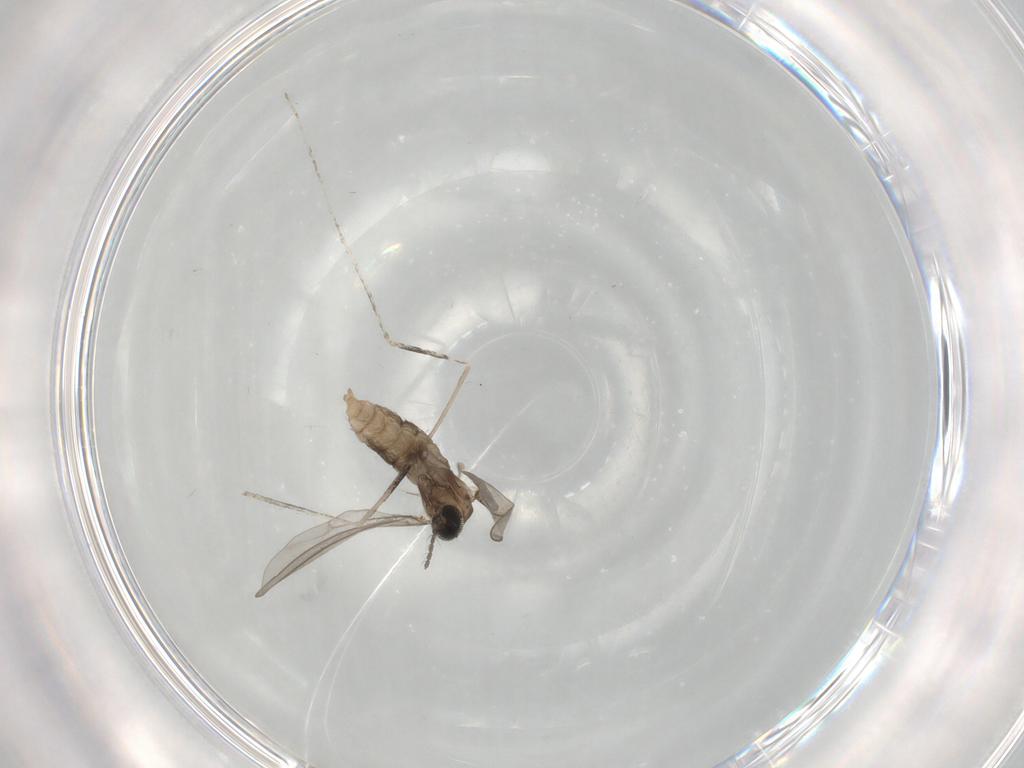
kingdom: Animalia
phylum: Arthropoda
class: Insecta
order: Diptera
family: Cecidomyiidae
